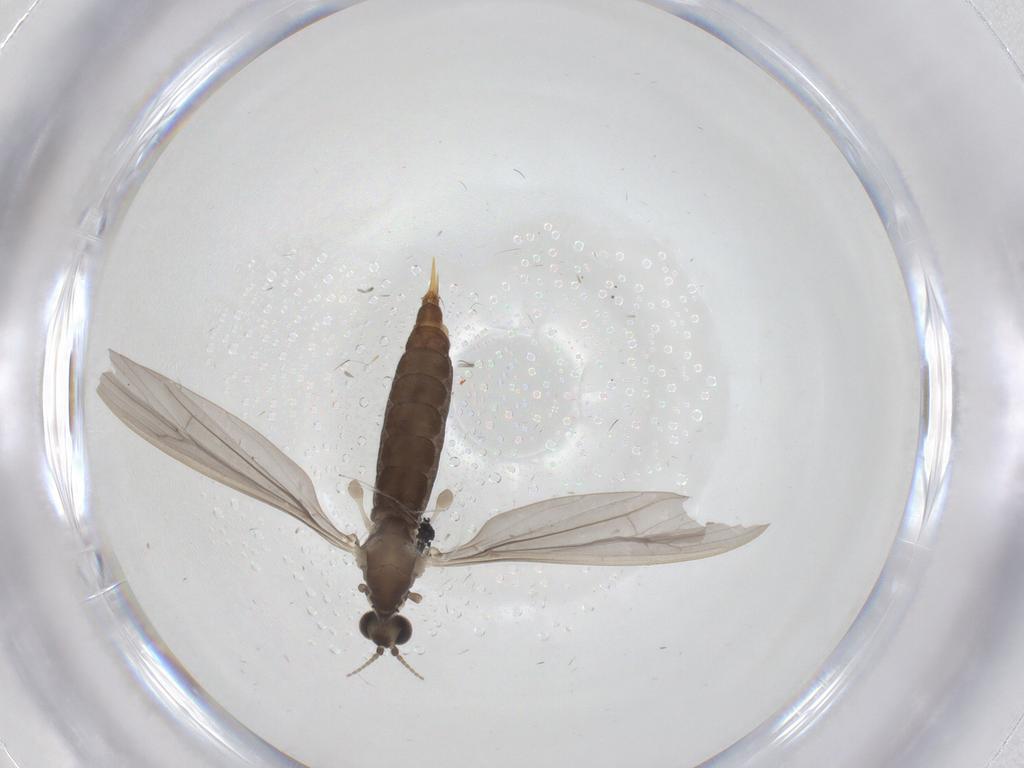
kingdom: Animalia
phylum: Arthropoda
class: Insecta
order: Diptera
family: Limoniidae
